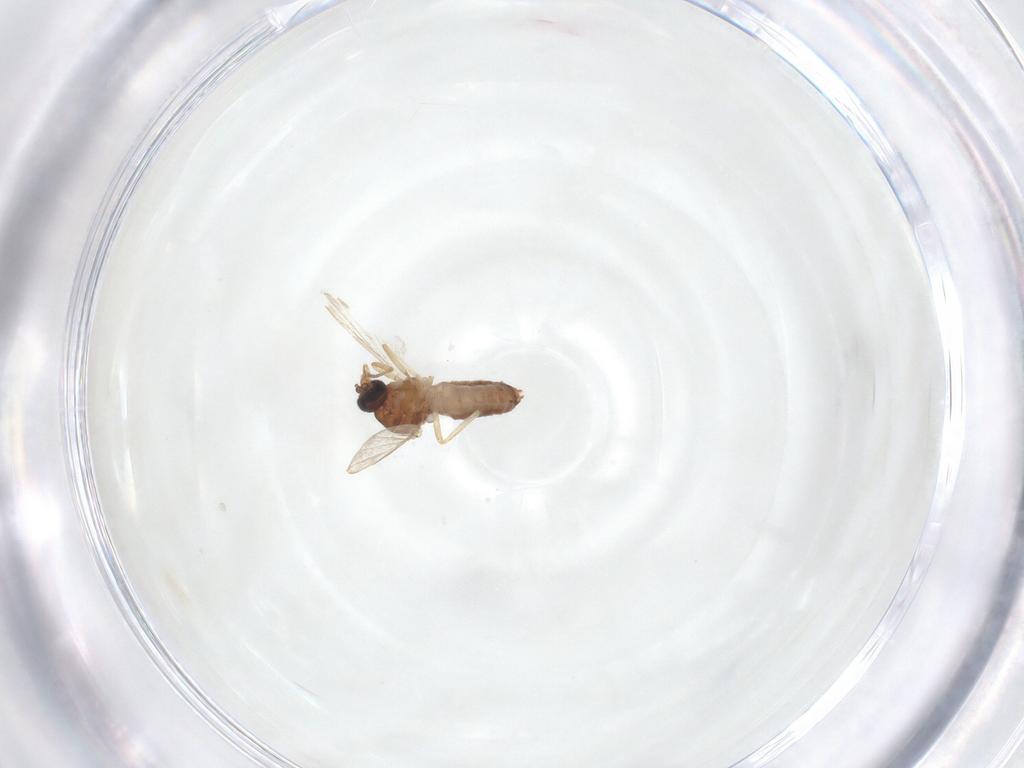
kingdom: Animalia
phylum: Arthropoda
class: Insecta
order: Diptera
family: Ceratopogonidae
